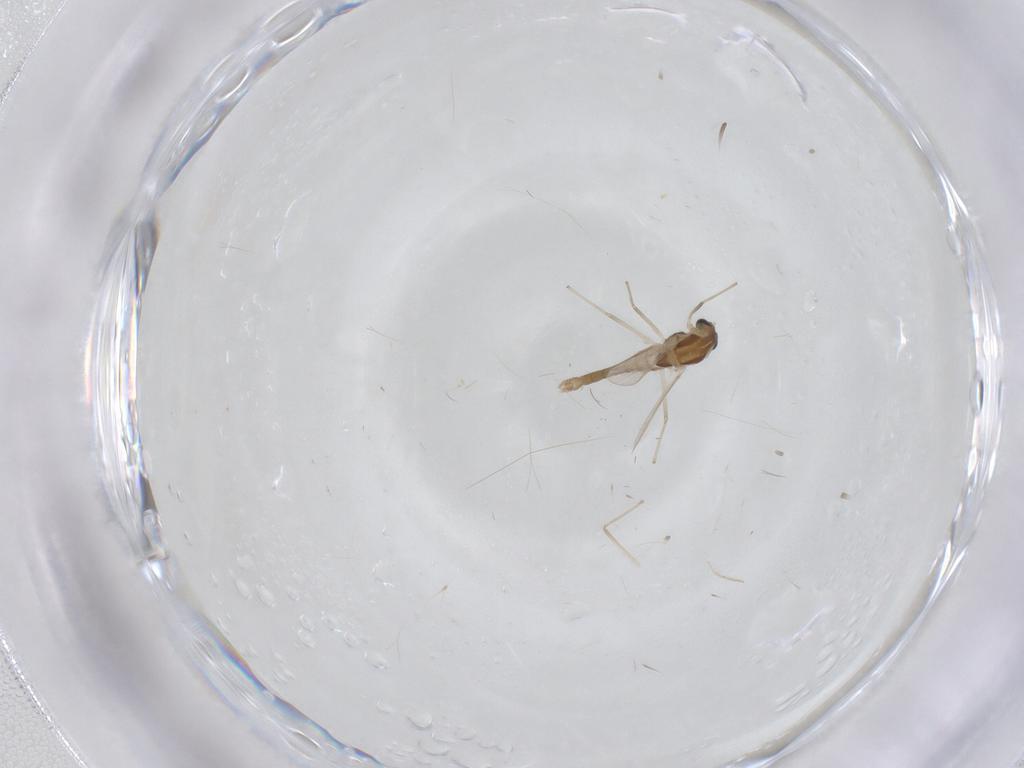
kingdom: Animalia
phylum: Arthropoda
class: Insecta
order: Diptera
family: Chironomidae
